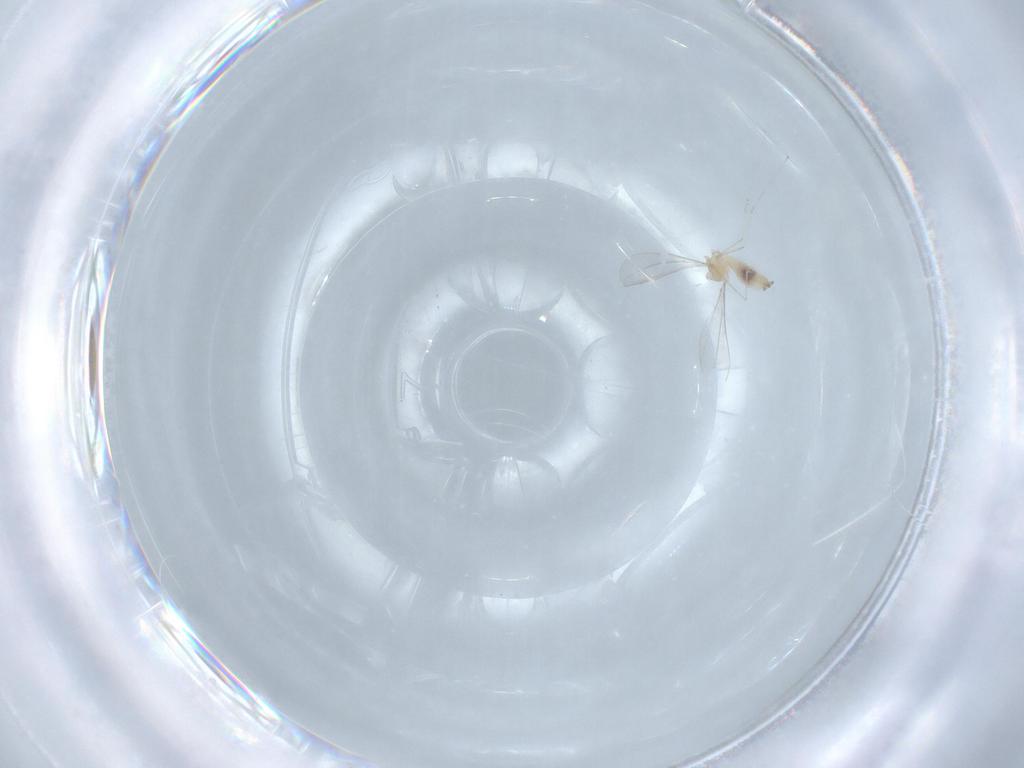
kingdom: Animalia
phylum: Arthropoda
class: Insecta
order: Diptera
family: Cecidomyiidae
